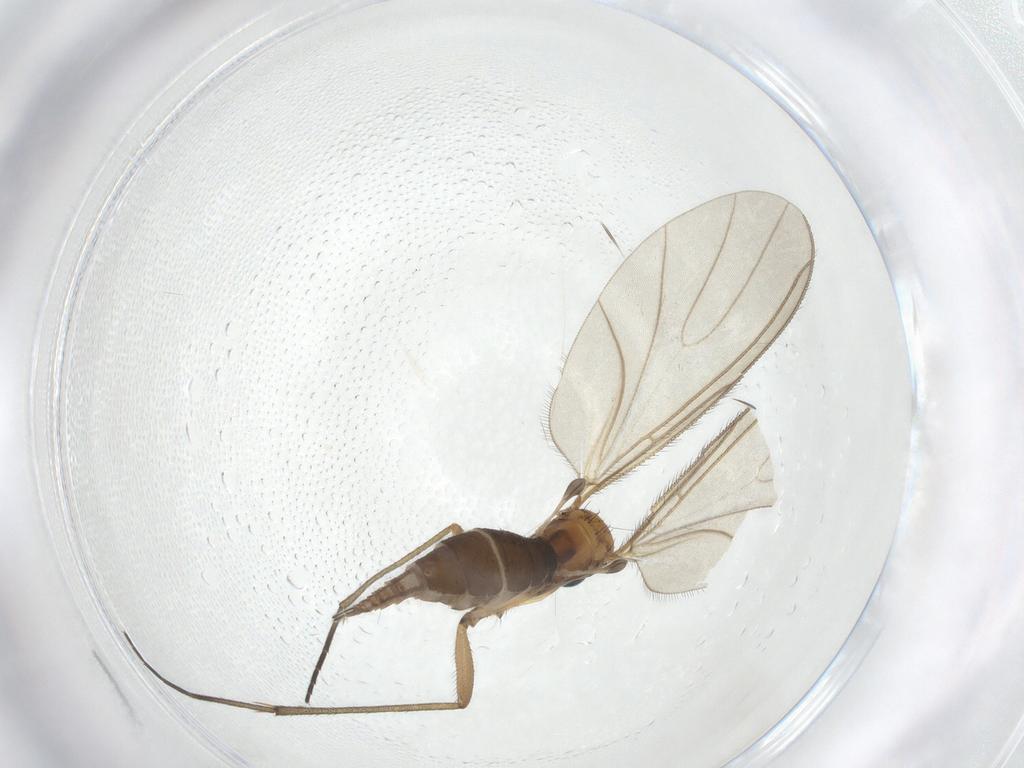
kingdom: Animalia
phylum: Arthropoda
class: Insecta
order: Diptera
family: Sciaridae
